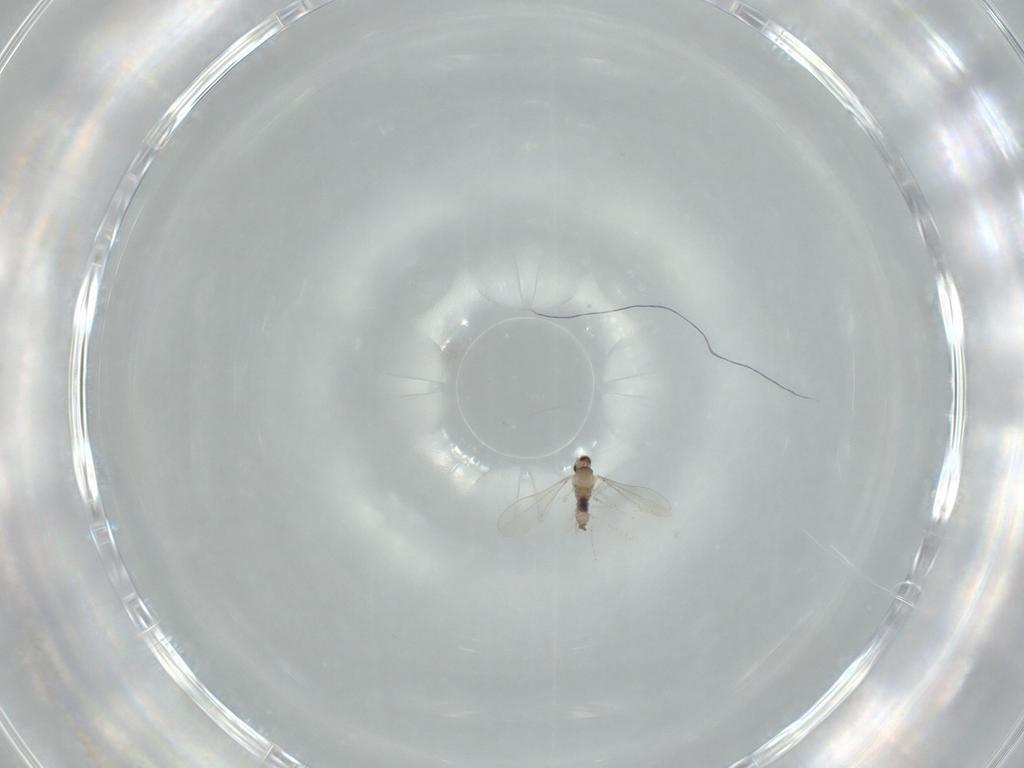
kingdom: Animalia
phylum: Arthropoda
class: Insecta
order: Diptera
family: Cecidomyiidae
